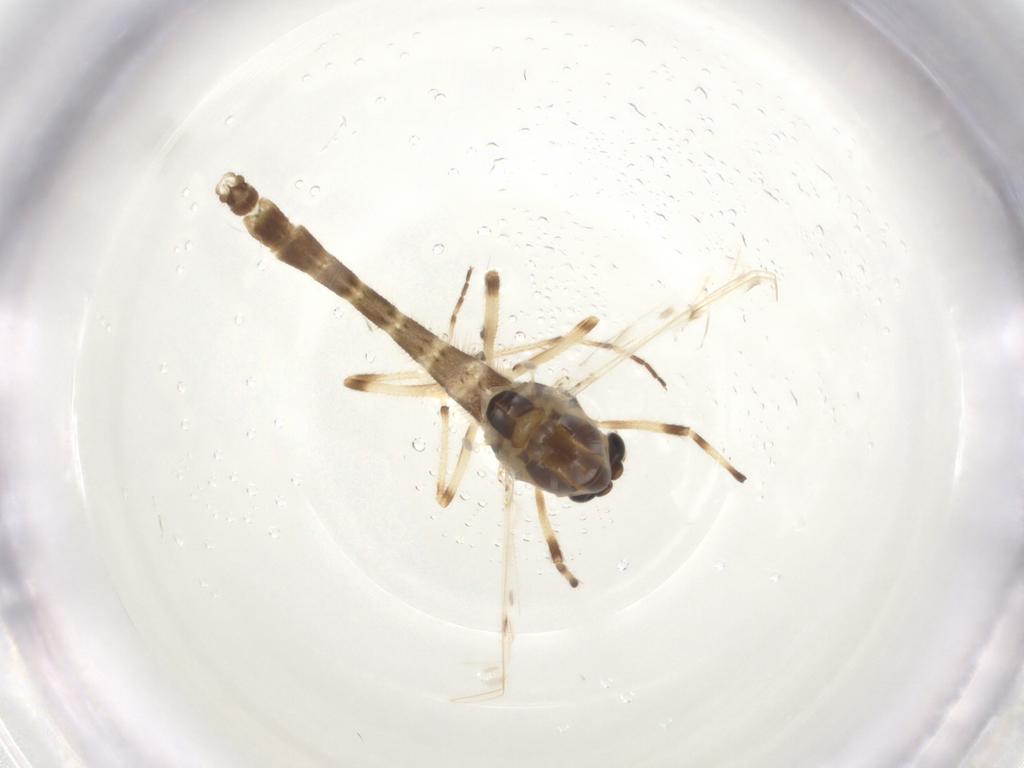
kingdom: Animalia
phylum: Arthropoda
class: Insecta
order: Diptera
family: Chironomidae
